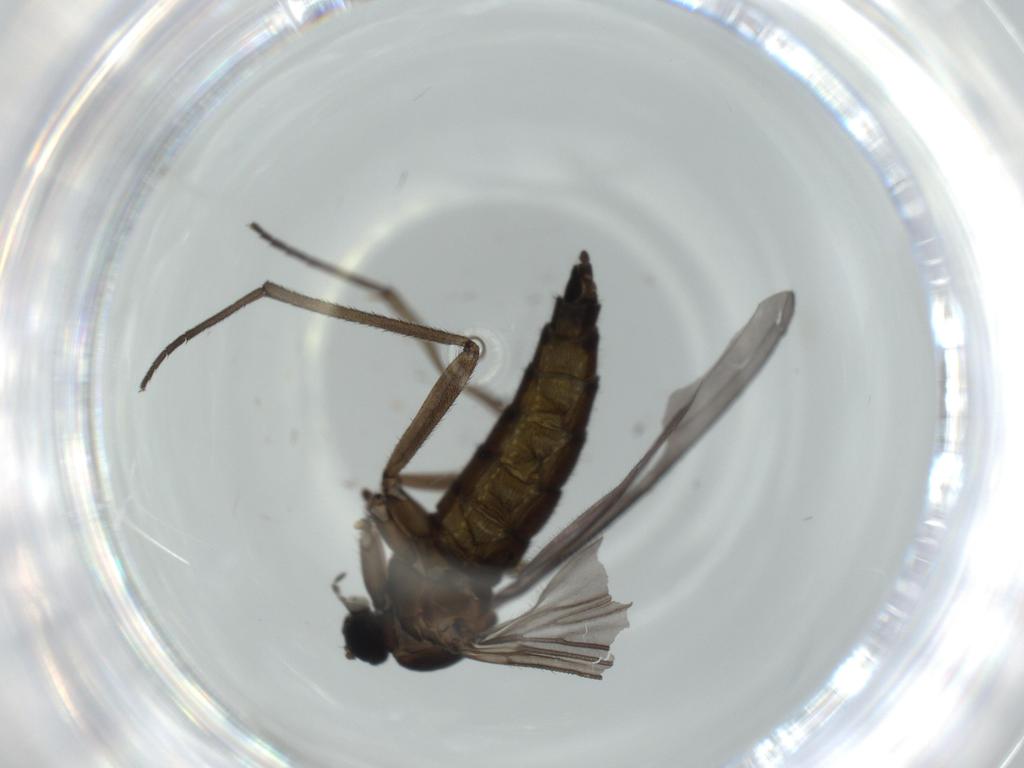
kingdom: Animalia
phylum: Arthropoda
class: Insecta
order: Diptera
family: Sciaridae
